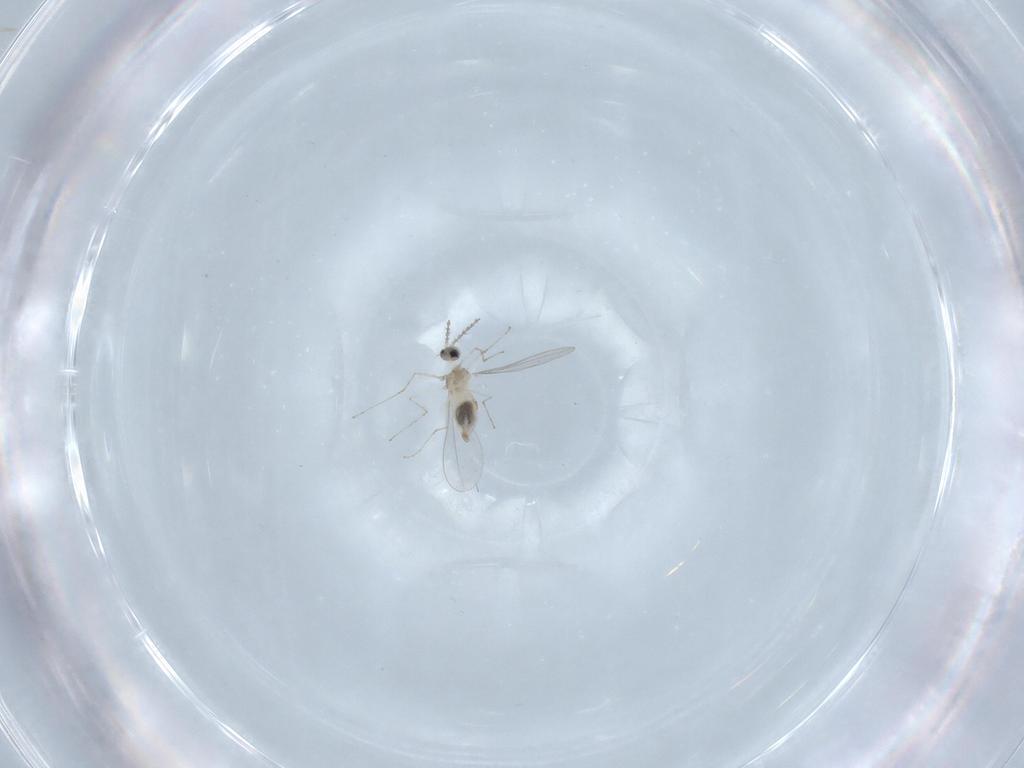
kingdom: Animalia
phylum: Arthropoda
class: Insecta
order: Diptera
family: Cecidomyiidae
